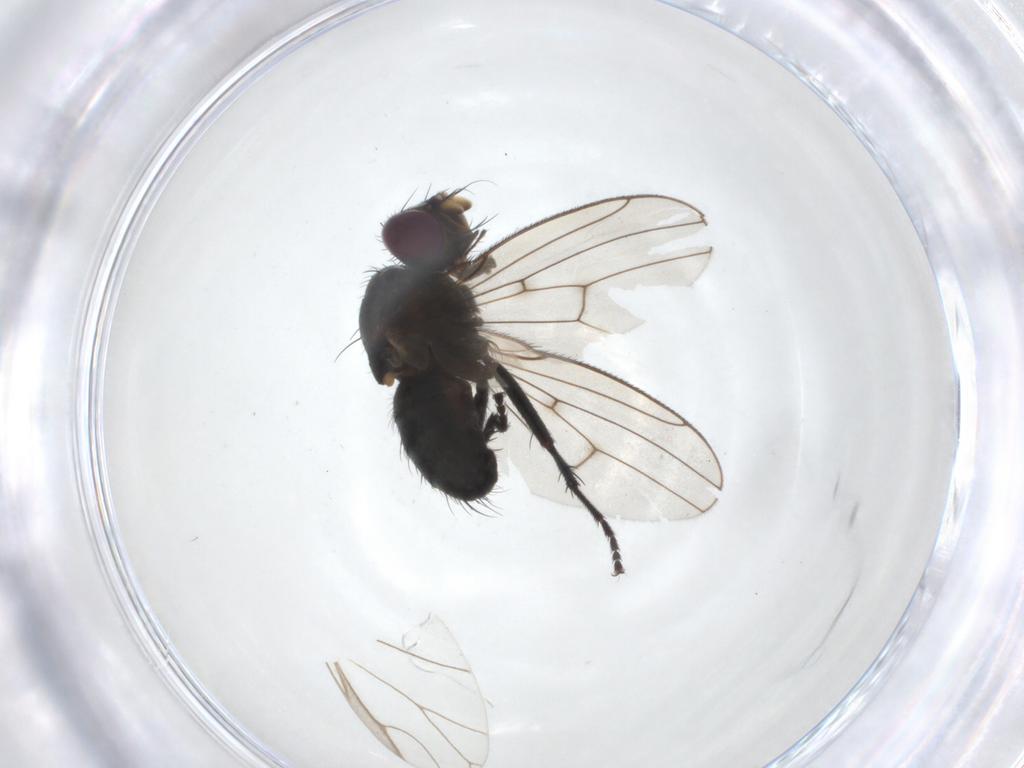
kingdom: Animalia
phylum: Arthropoda
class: Insecta
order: Diptera
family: Muscidae
